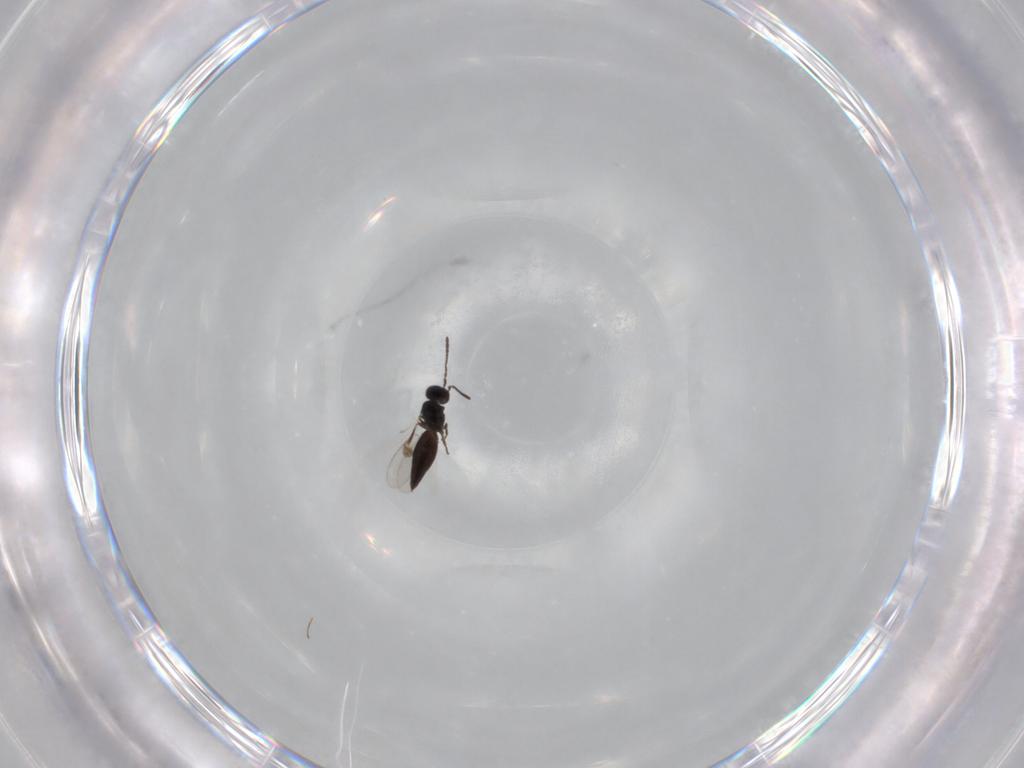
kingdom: Animalia
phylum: Arthropoda
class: Insecta
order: Hymenoptera
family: Scelionidae
